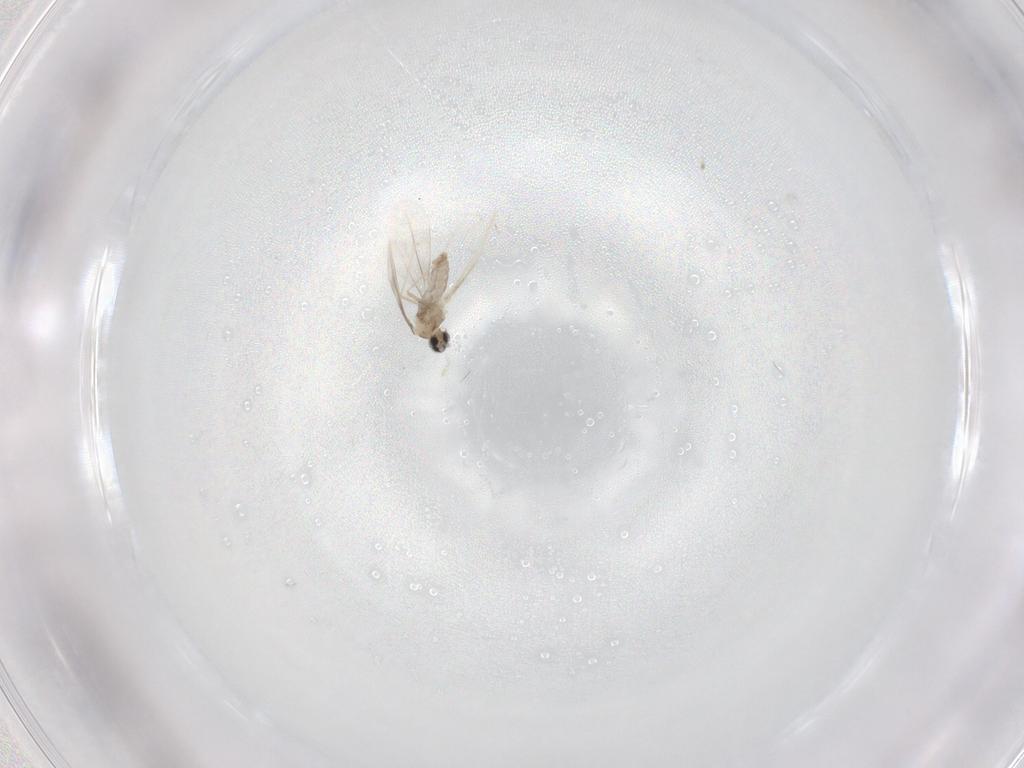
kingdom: Animalia
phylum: Arthropoda
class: Insecta
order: Diptera
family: Cecidomyiidae
